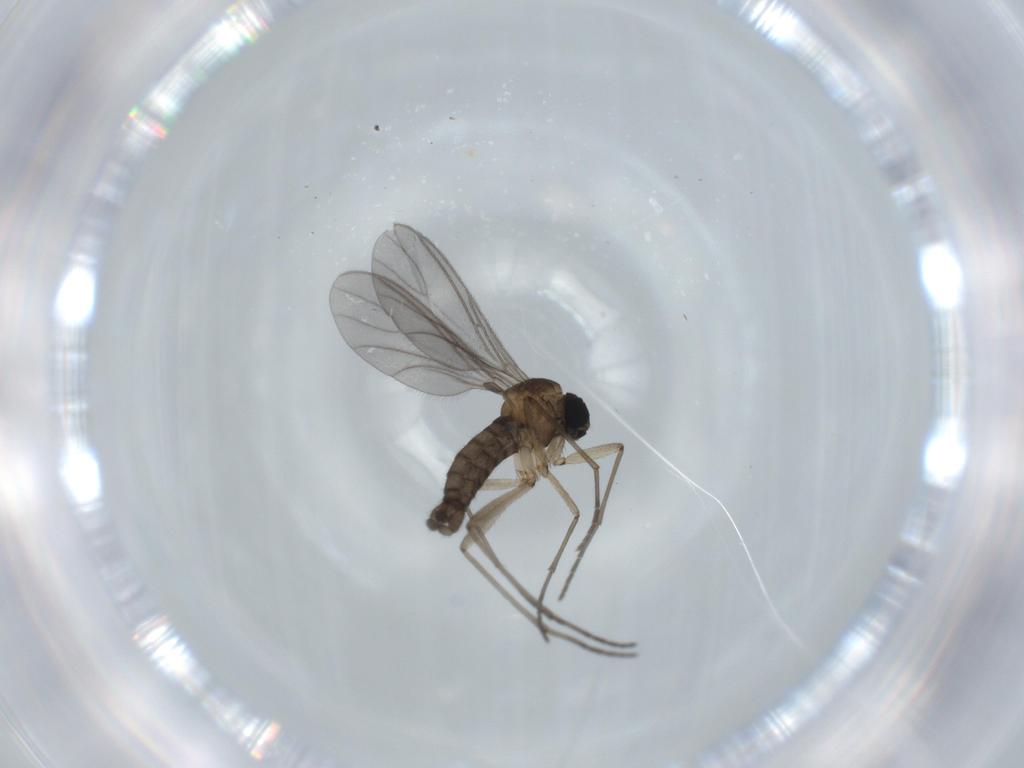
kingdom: Animalia
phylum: Arthropoda
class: Insecta
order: Diptera
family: Sciaridae
